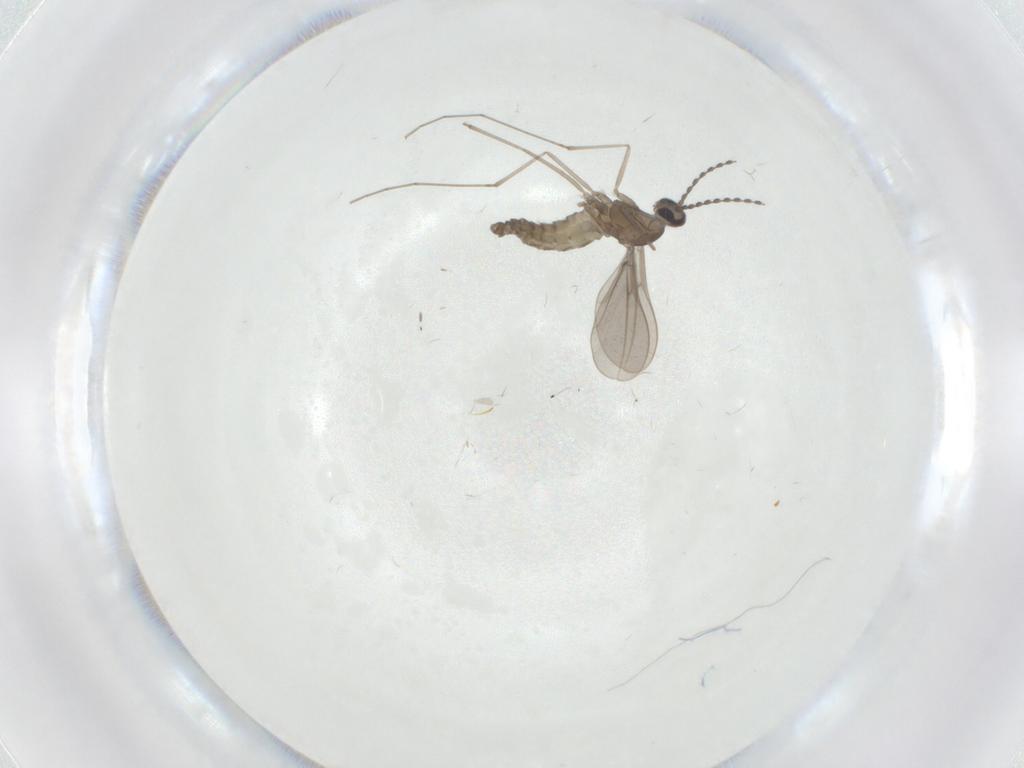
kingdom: Animalia
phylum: Arthropoda
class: Insecta
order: Diptera
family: Cecidomyiidae
